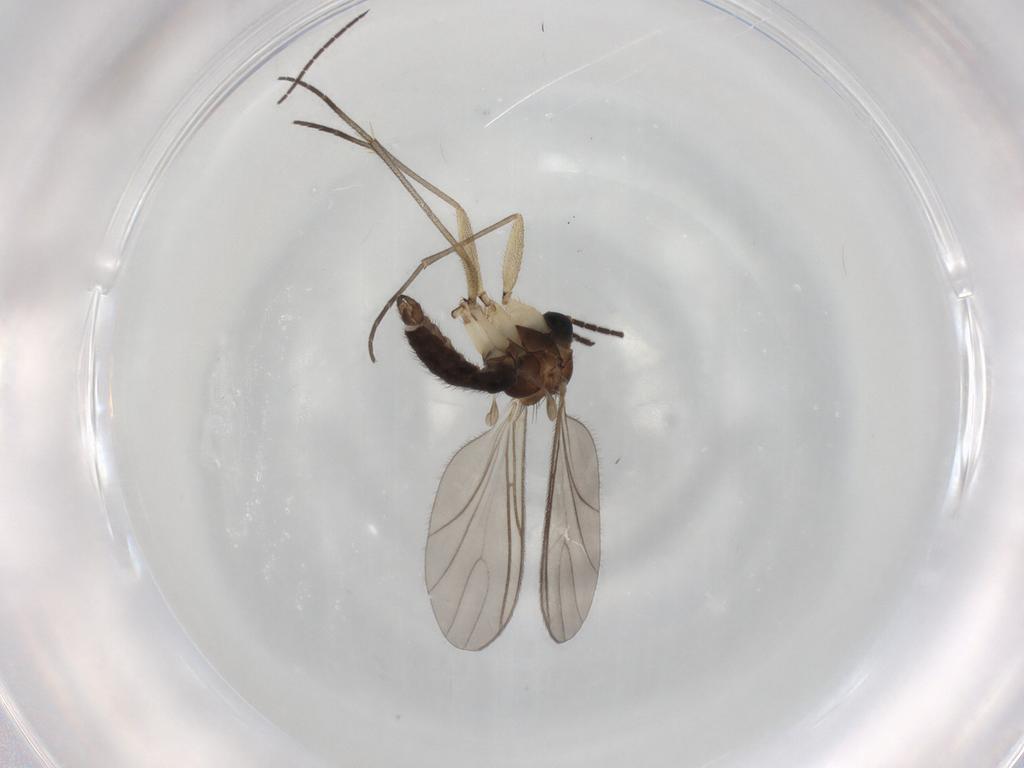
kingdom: Animalia
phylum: Arthropoda
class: Insecta
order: Diptera
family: Sciaridae
